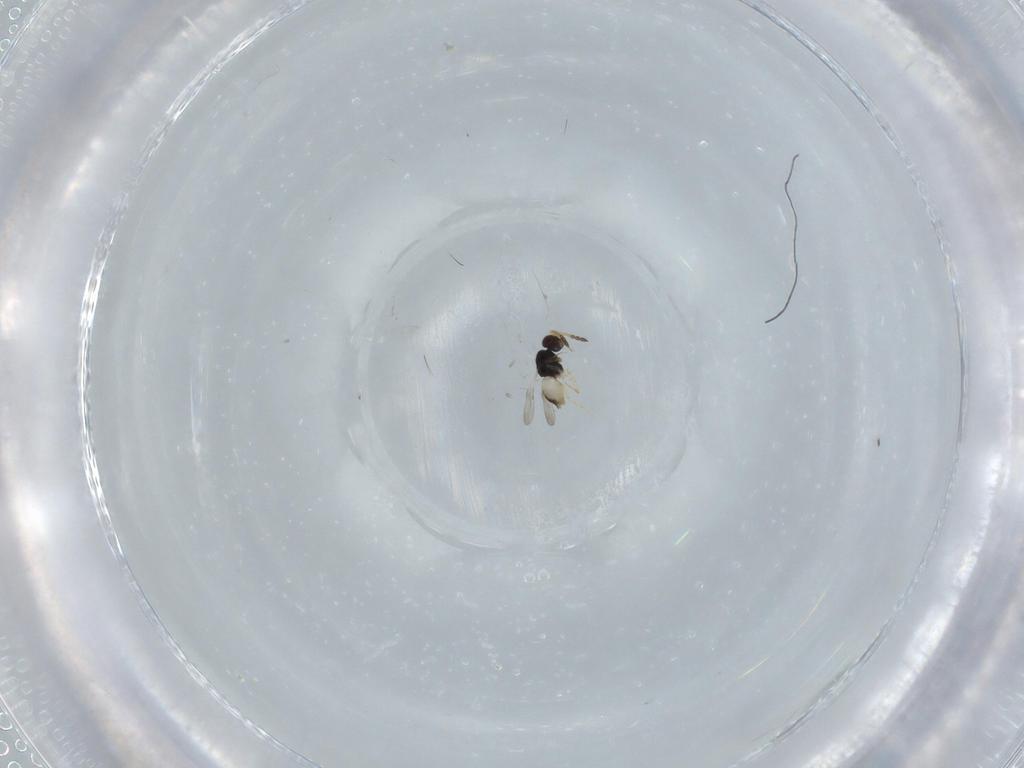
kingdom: Animalia
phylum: Arthropoda
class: Insecta
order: Hymenoptera
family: Ceraphronidae
